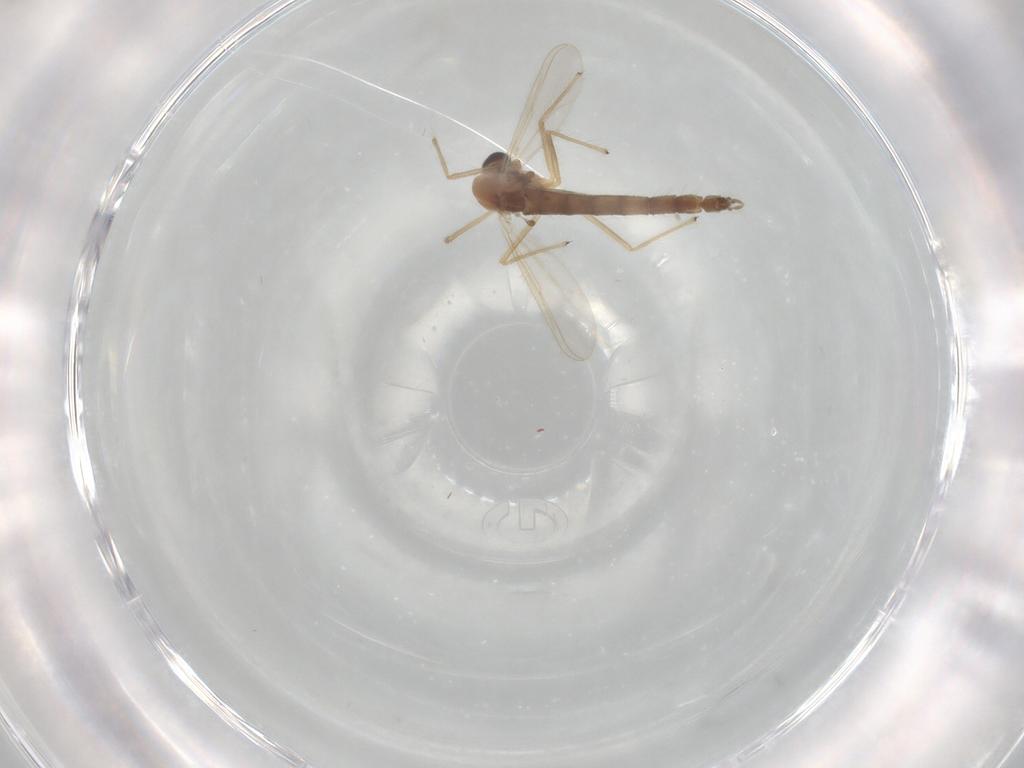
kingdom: Animalia
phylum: Arthropoda
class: Insecta
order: Diptera
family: Chironomidae
